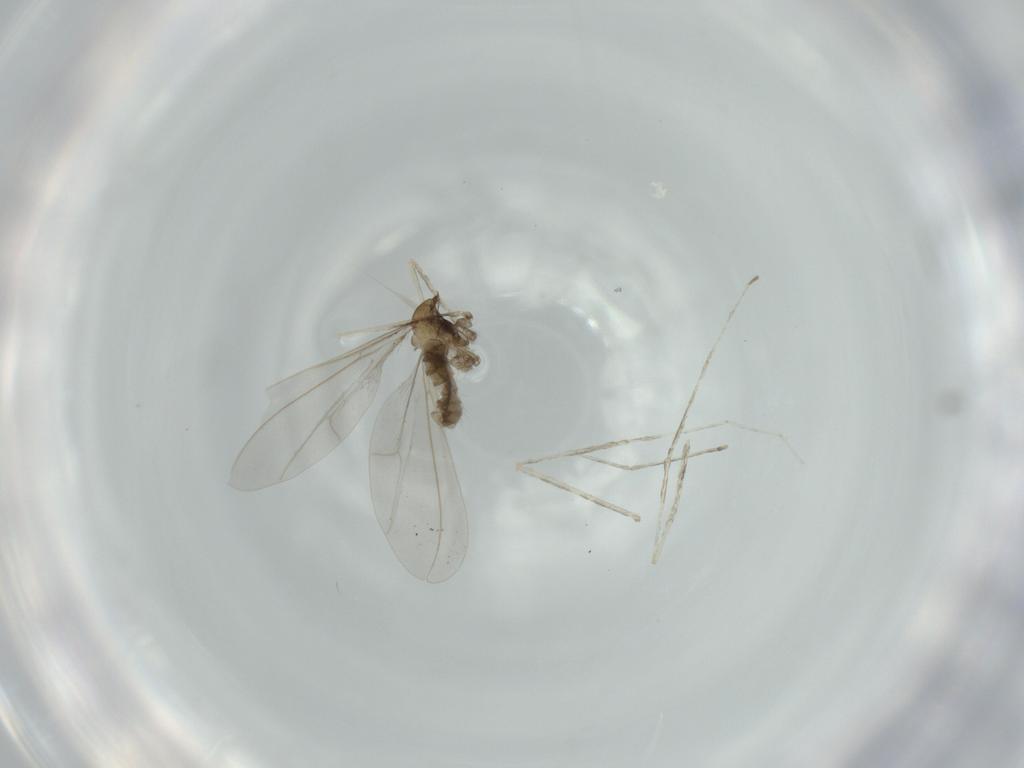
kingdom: Animalia
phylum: Arthropoda
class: Insecta
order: Diptera
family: Cecidomyiidae
